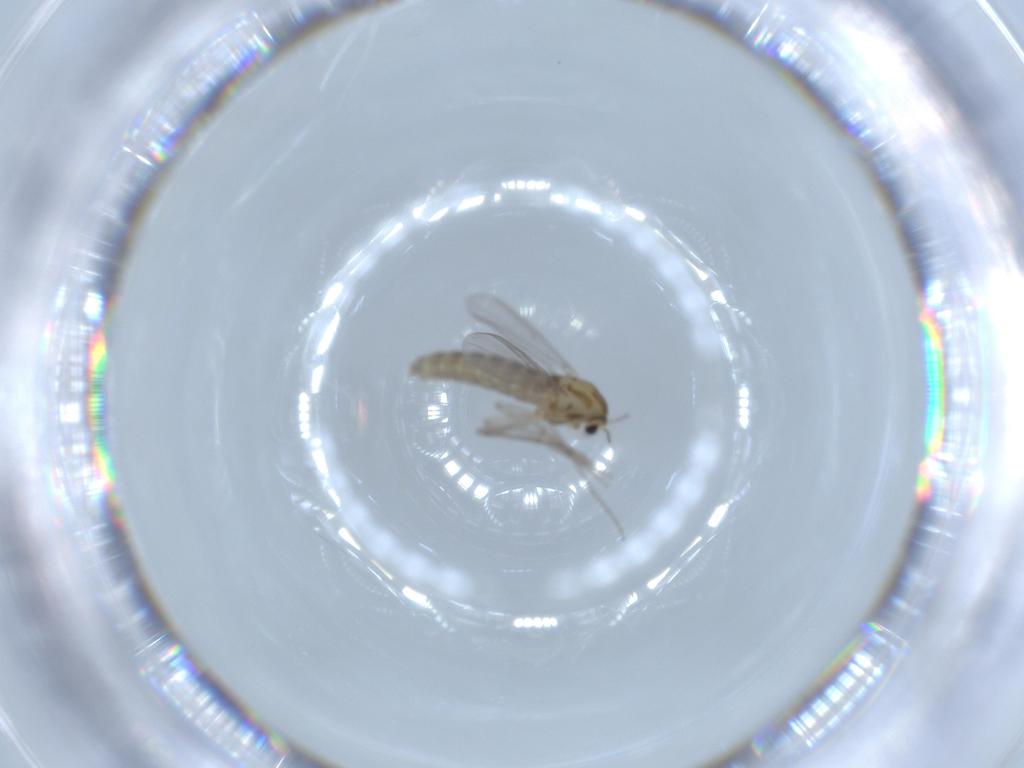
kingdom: Animalia
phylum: Arthropoda
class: Insecta
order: Diptera
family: Chironomidae
